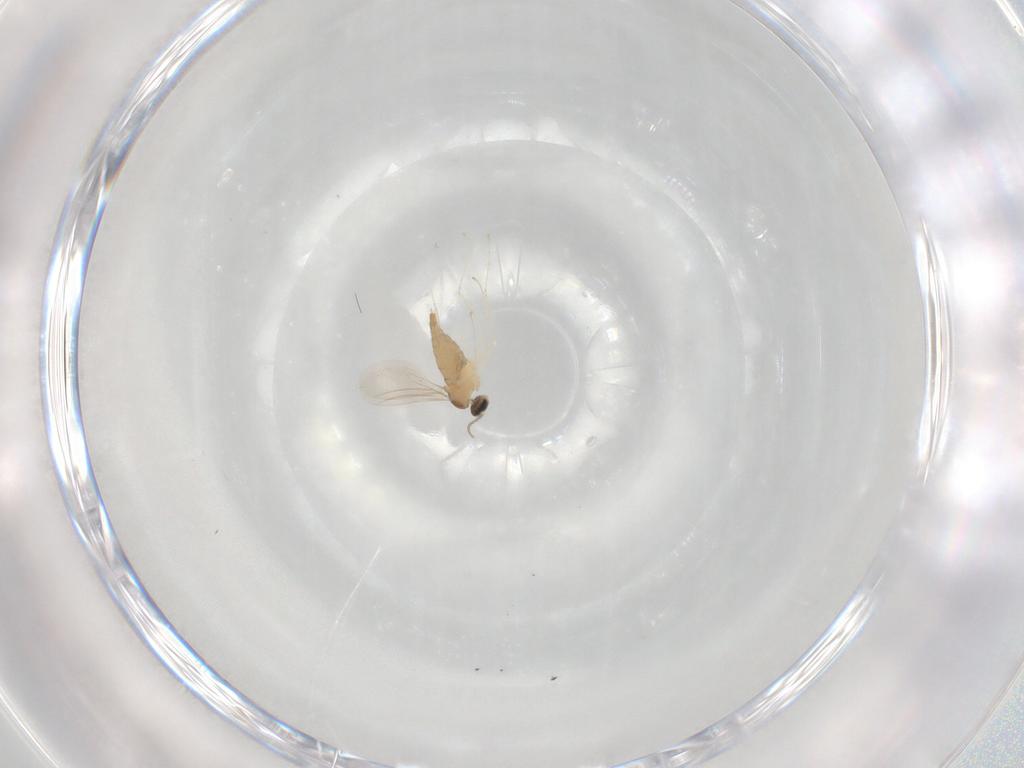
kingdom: Animalia
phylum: Arthropoda
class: Insecta
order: Diptera
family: Cecidomyiidae
